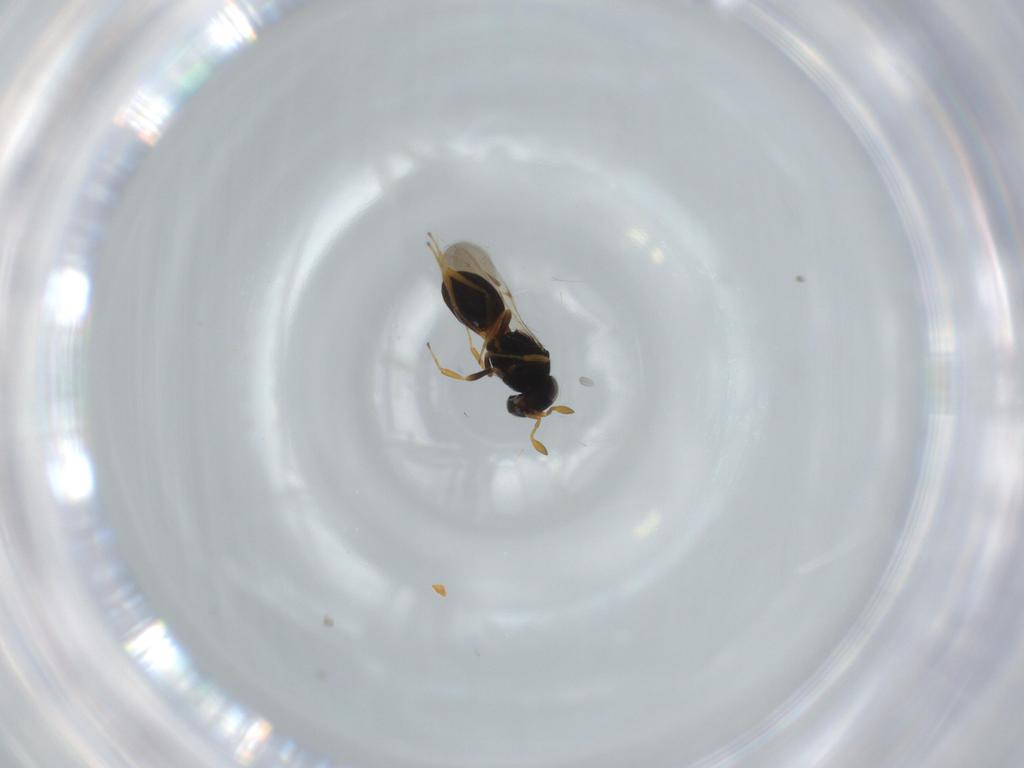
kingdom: Animalia
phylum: Arthropoda
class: Insecta
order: Hymenoptera
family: Scelionidae
